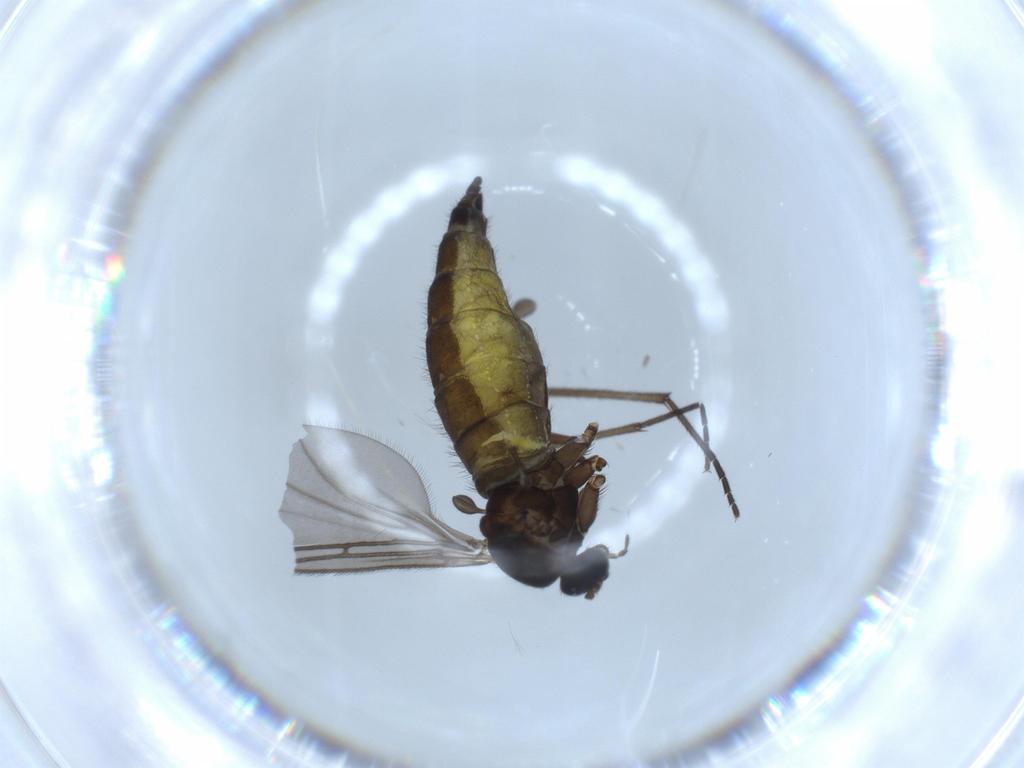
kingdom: Animalia
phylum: Arthropoda
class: Insecta
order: Diptera
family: Sciaridae
